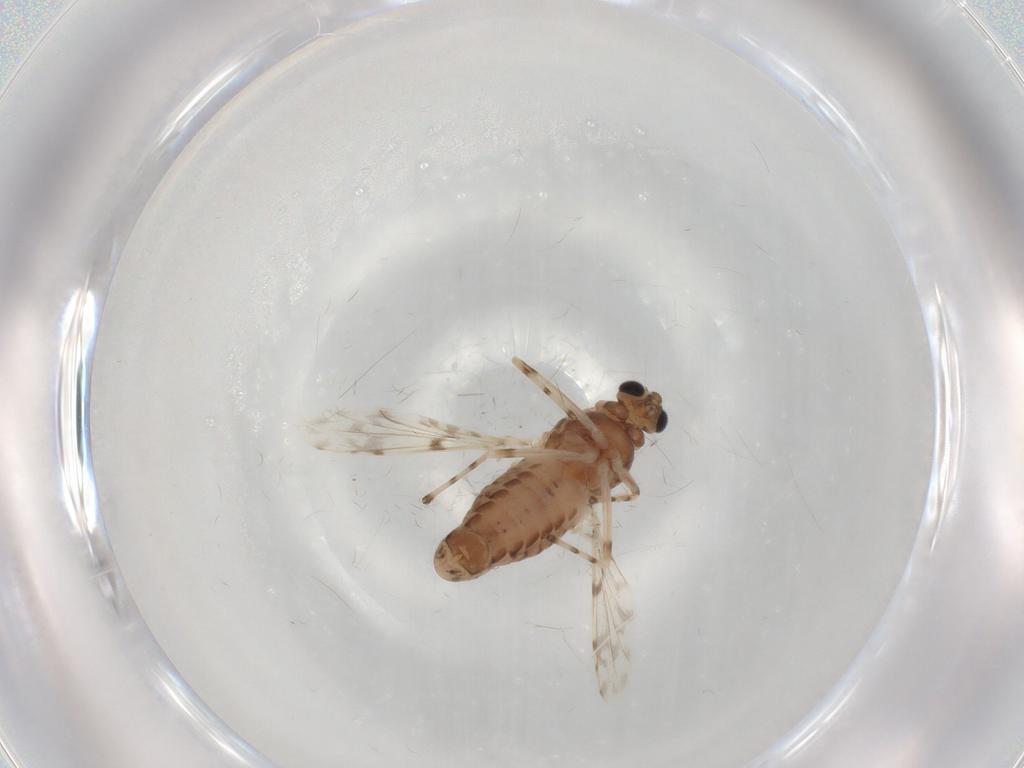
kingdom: Animalia
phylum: Arthropoda
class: Insecta
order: Diptera
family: Chironomidae
